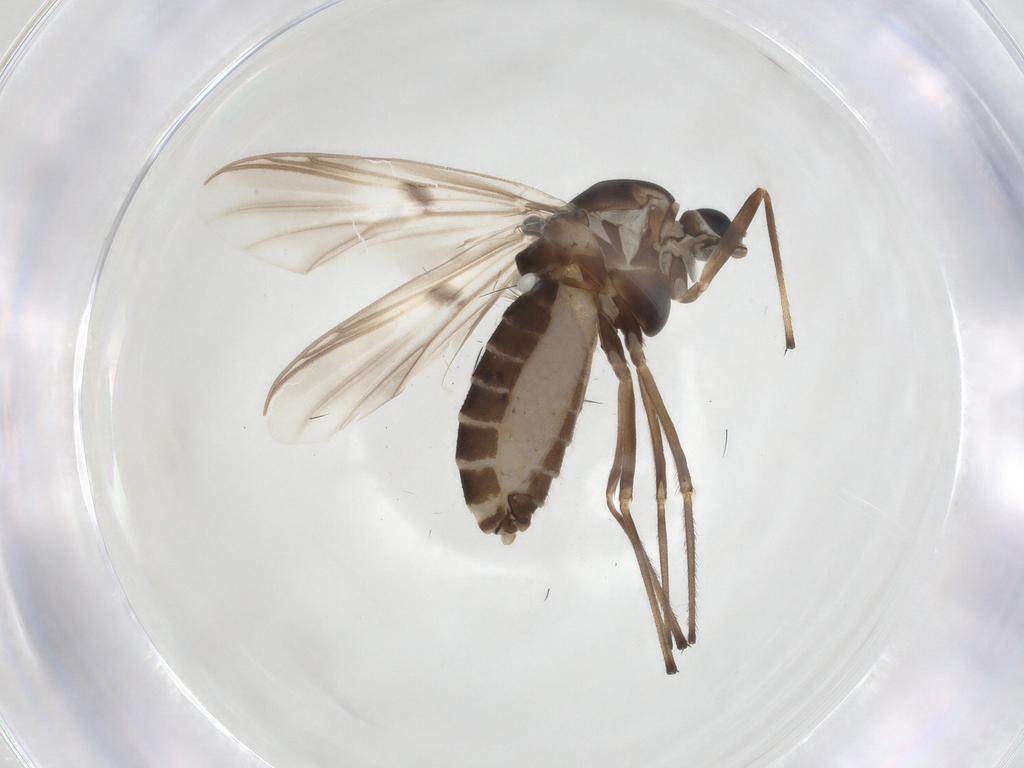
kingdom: Animalia
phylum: Arthropoda
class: Insecta
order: Diptera
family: Chironomidae
